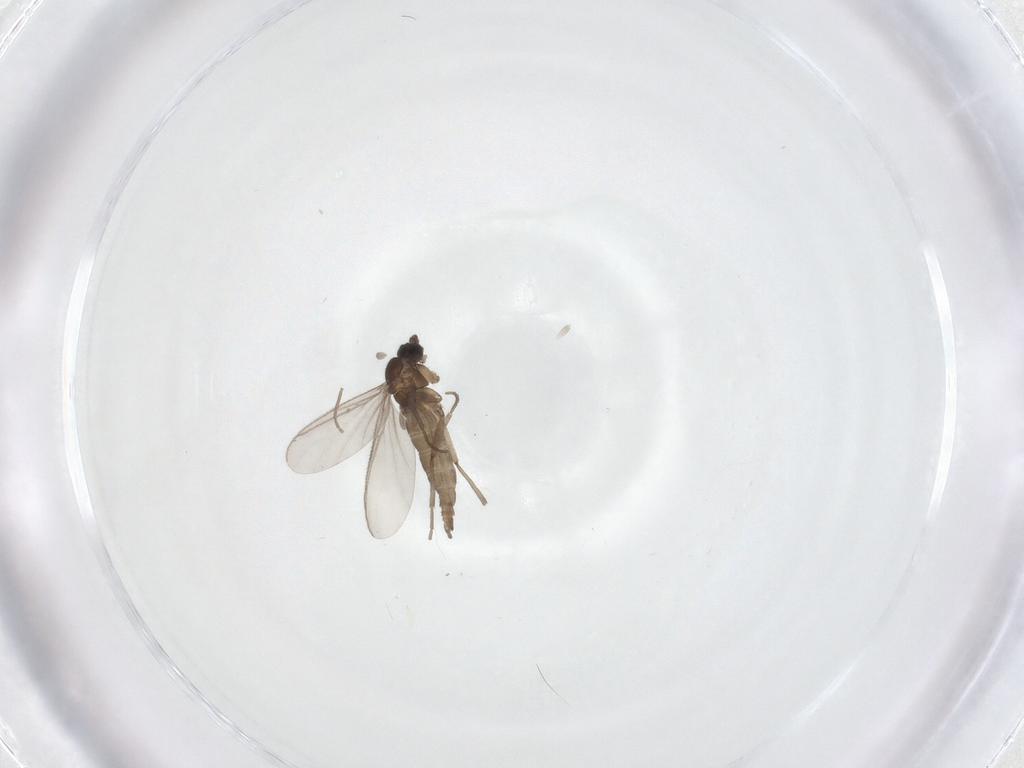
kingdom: Animalia
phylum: Arthropoda
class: Insecta
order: Diptera
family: Sciaridae
